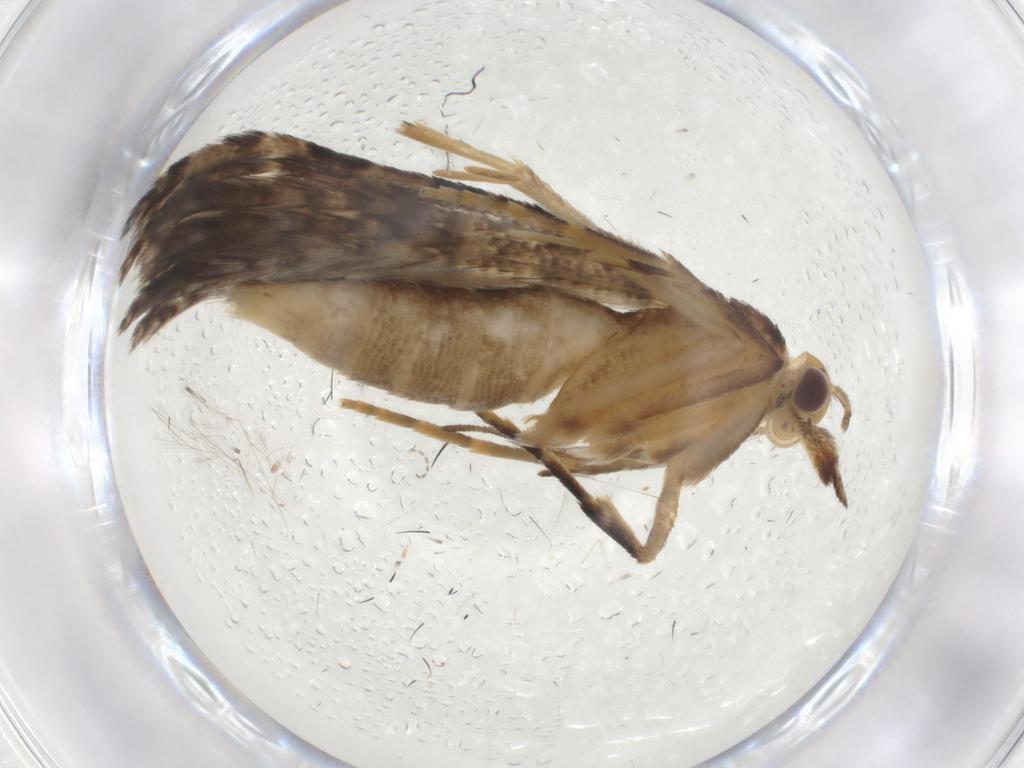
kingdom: Animalia
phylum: Arthropoda
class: Insecta
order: Lepidoptera
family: Alucitidae
